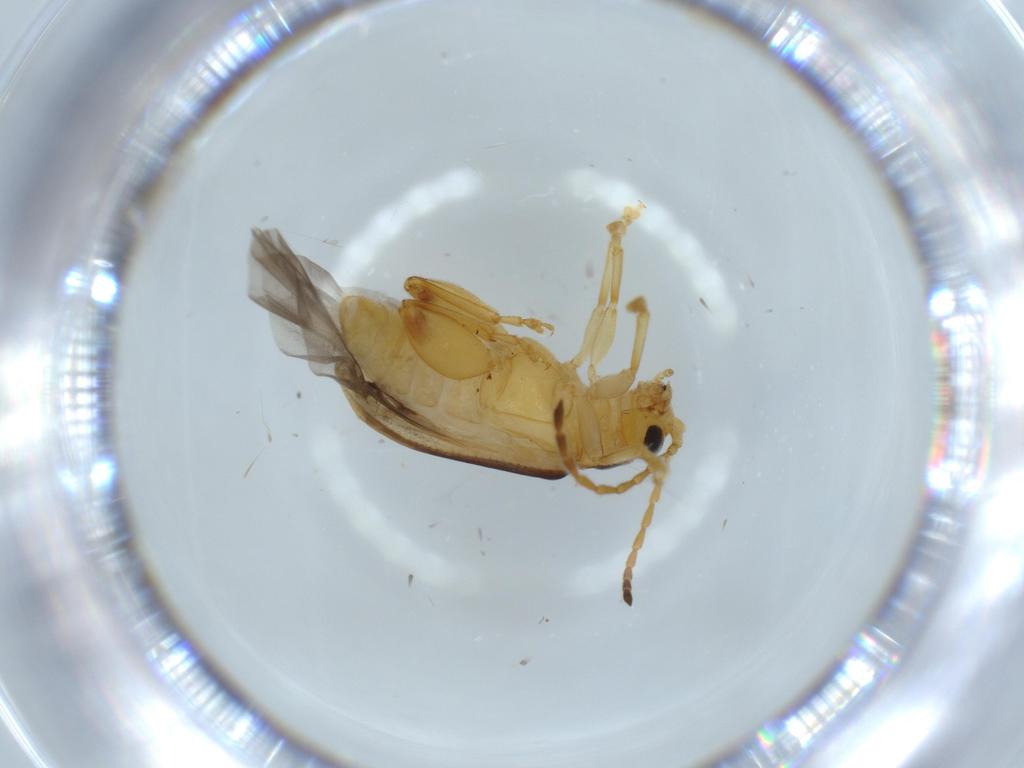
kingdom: Animalia
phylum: Arthropoda
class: Insecta
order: Coleoptera
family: Chrysomelidae
